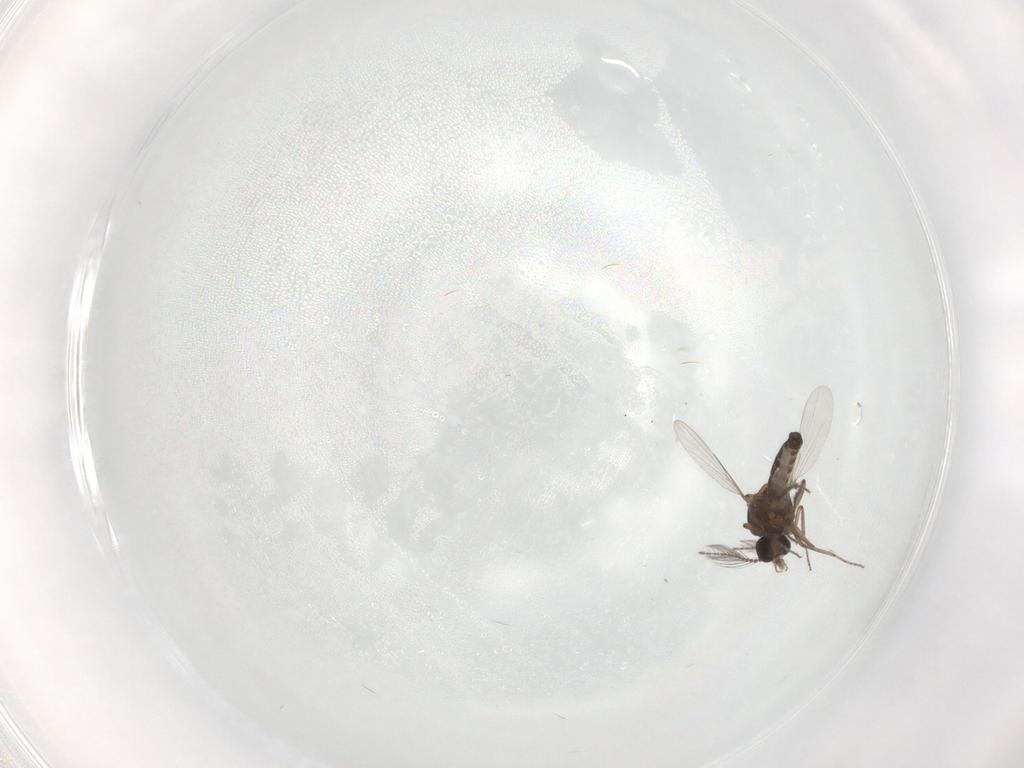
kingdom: Animalia
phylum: Arthropoda
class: Insecta
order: Diptera
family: Ceratopogonidae
